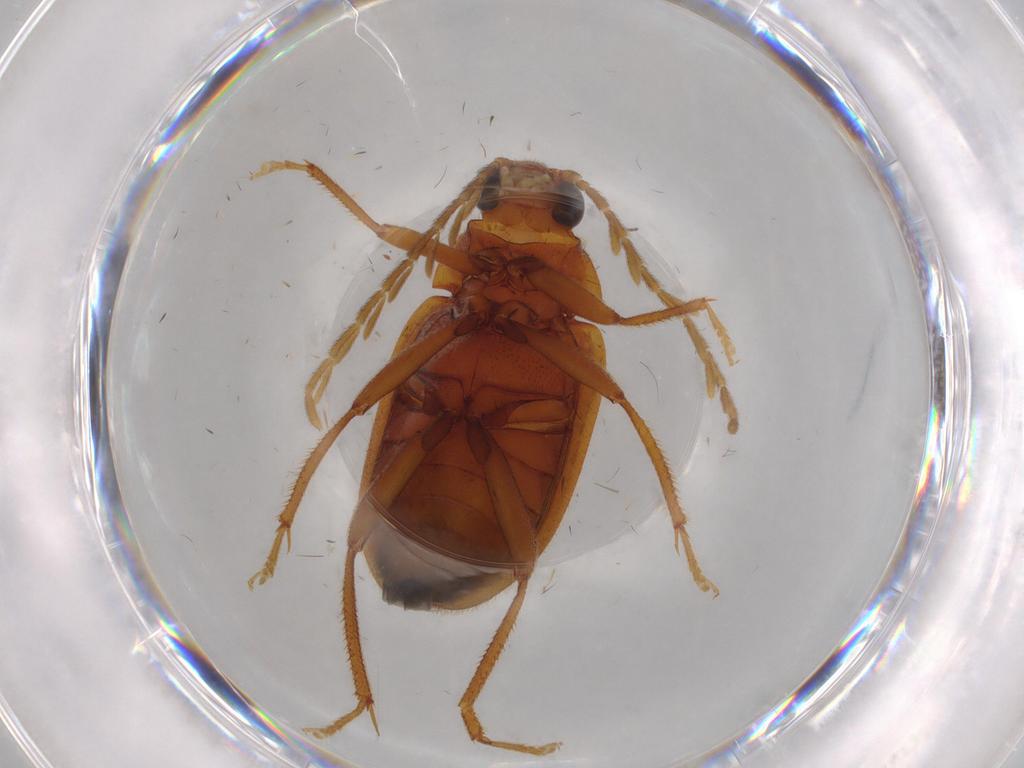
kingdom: Animalia
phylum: Arthropoda
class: Insecta
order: Coleoptera
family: Ptilodactylidae
